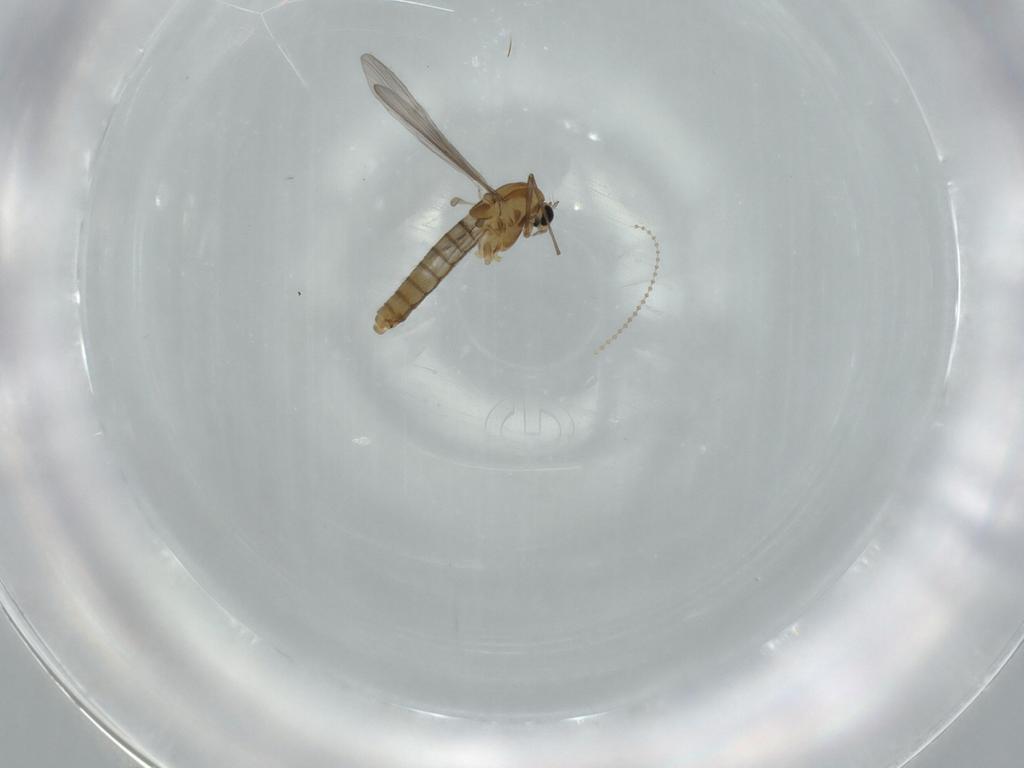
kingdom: Animalia
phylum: Arthropoda
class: Insecta
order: Diptera
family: Chironomidae
